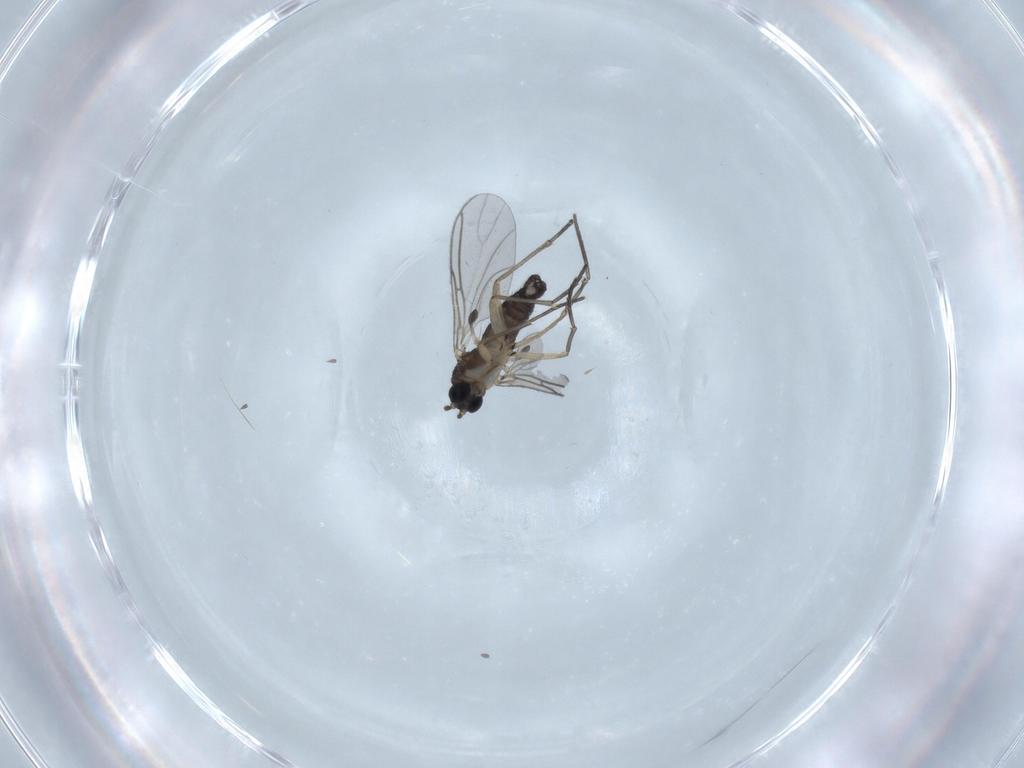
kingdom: Animalia
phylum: Arthropoda
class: Insecta
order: Diptera
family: Sciaridae
